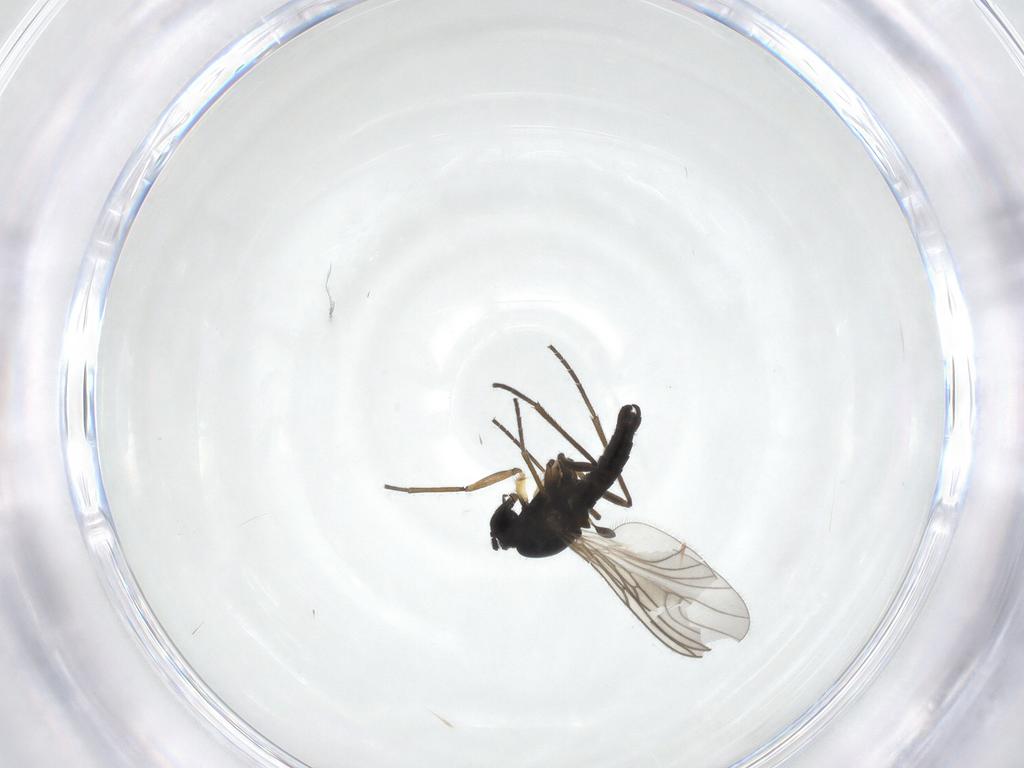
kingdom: Animalia
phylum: Arthropoda
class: Insecta
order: Diptera
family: Sciaridae
